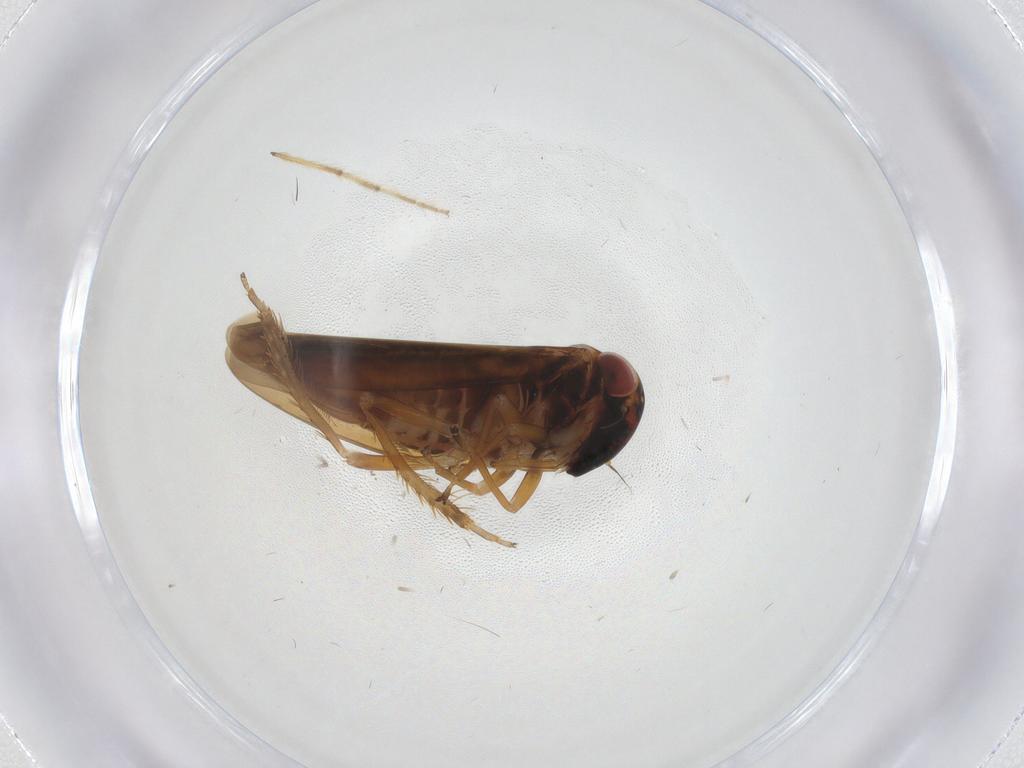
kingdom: Animalia
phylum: Arthropoda
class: Insecta
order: Hemiptera
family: Cicadellidae
